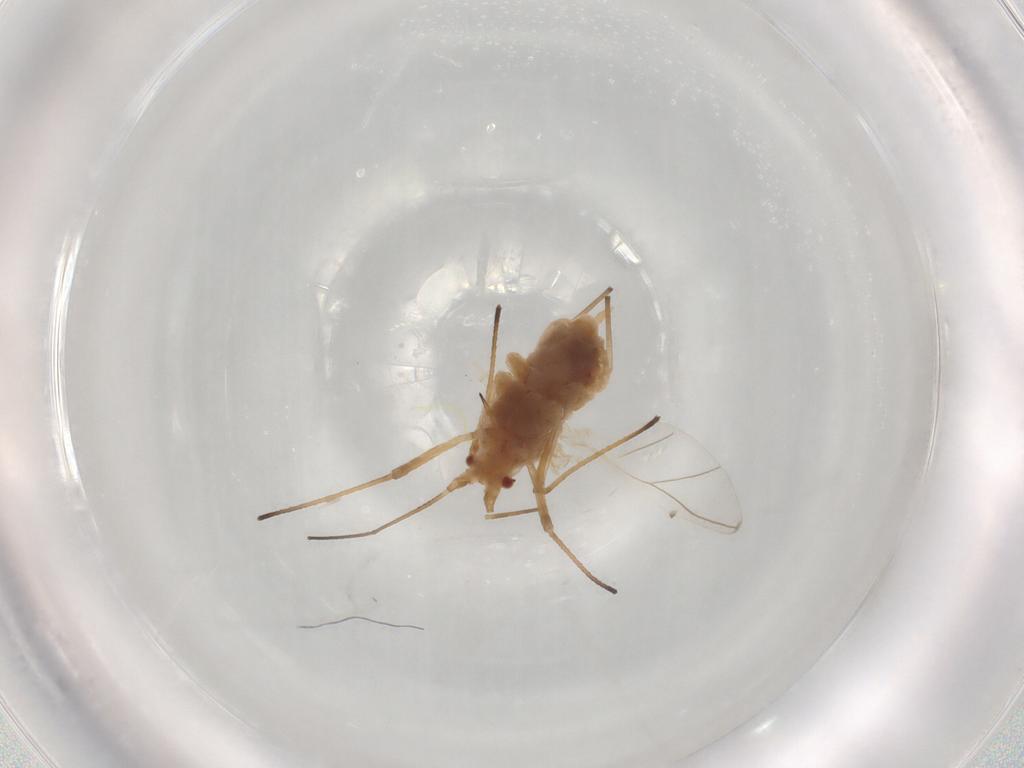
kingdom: Animalia
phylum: Arthropoda
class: Insecta
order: Hemiptera
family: Aphididae
